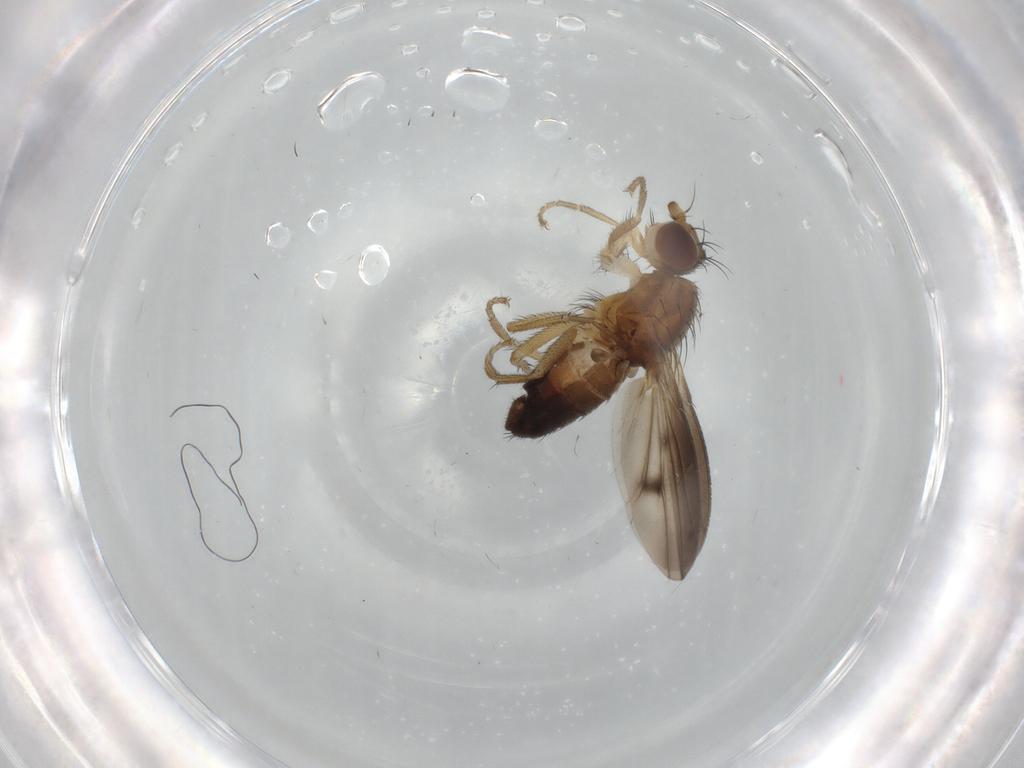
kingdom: Animalia
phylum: Arthropoda
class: Insecta
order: Diptera
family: Heleomyzidae
